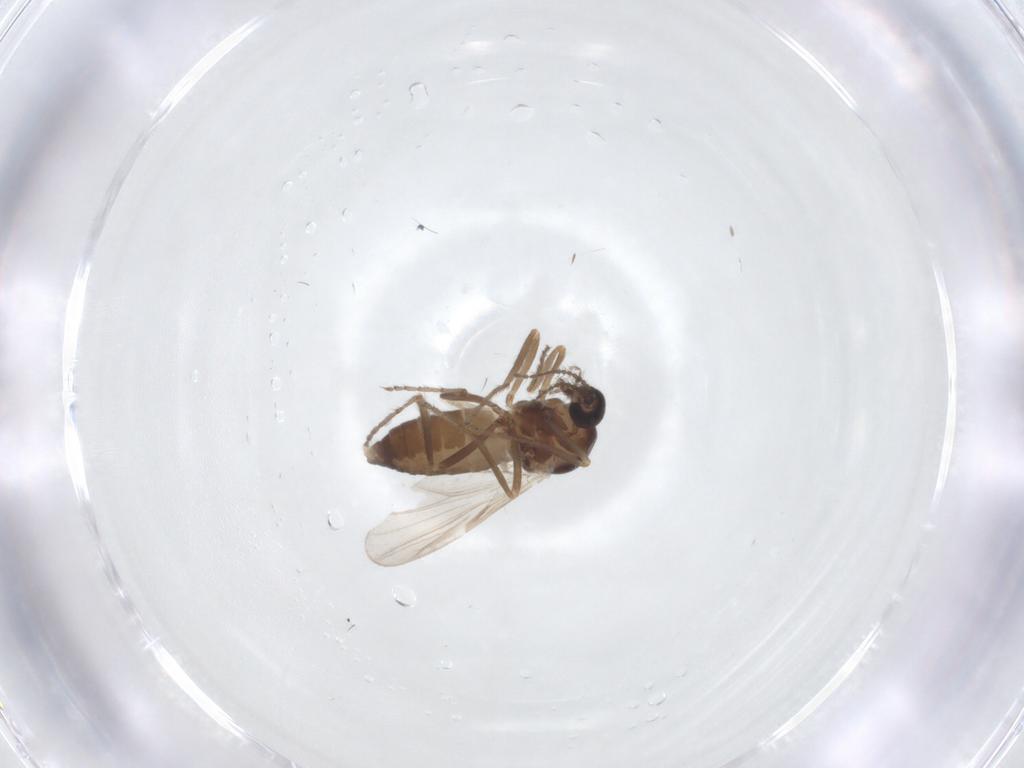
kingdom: Animalia
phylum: Arthropoda
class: Insecta
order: Diptera
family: Ceratopogonidae
